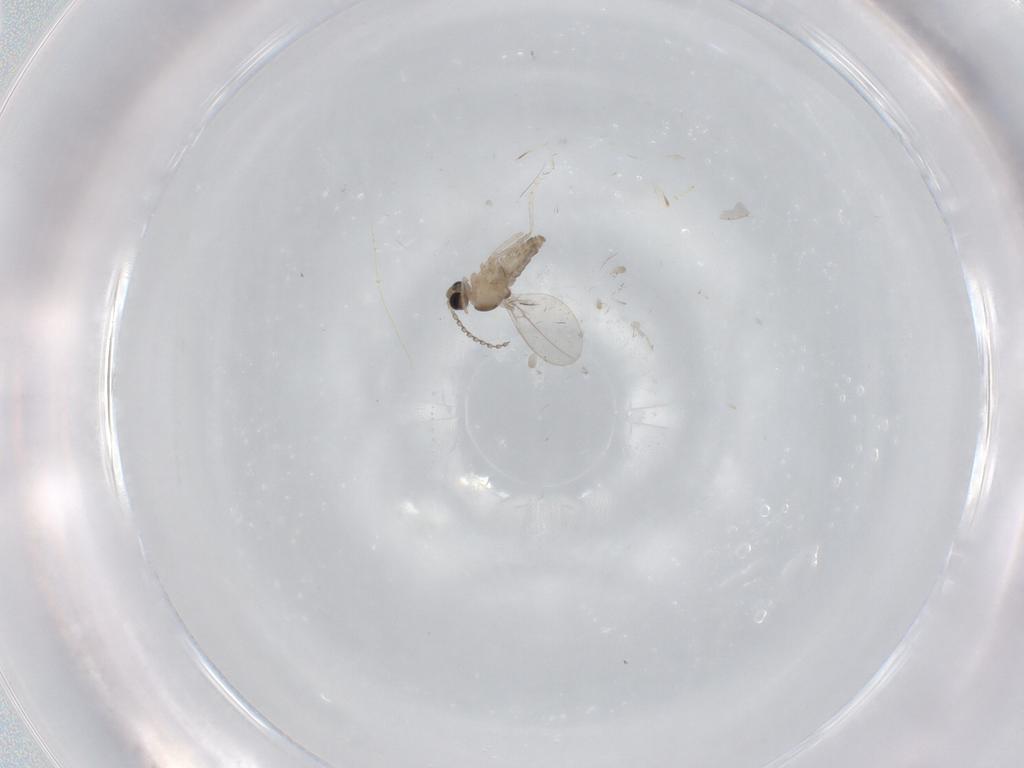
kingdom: Animalia
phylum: Arthropoda
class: Insecta
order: Diptera
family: Cecidomyiidae
